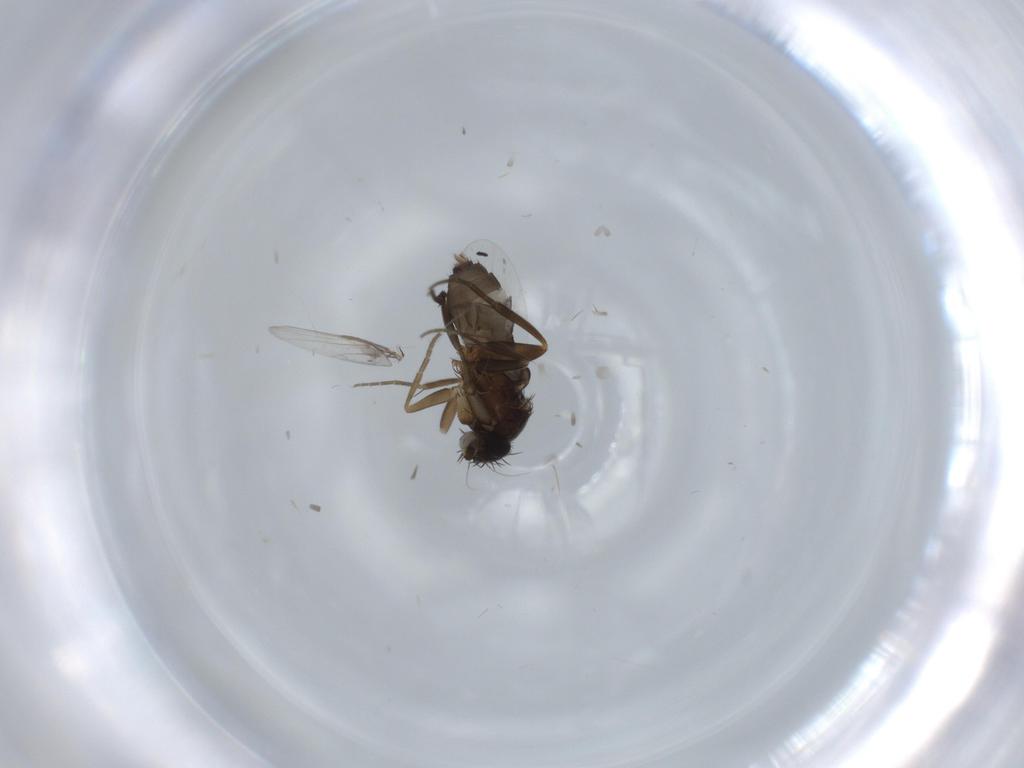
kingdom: Animalia
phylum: Arthropoda
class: Insecta
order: Diptera
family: Phoridae
